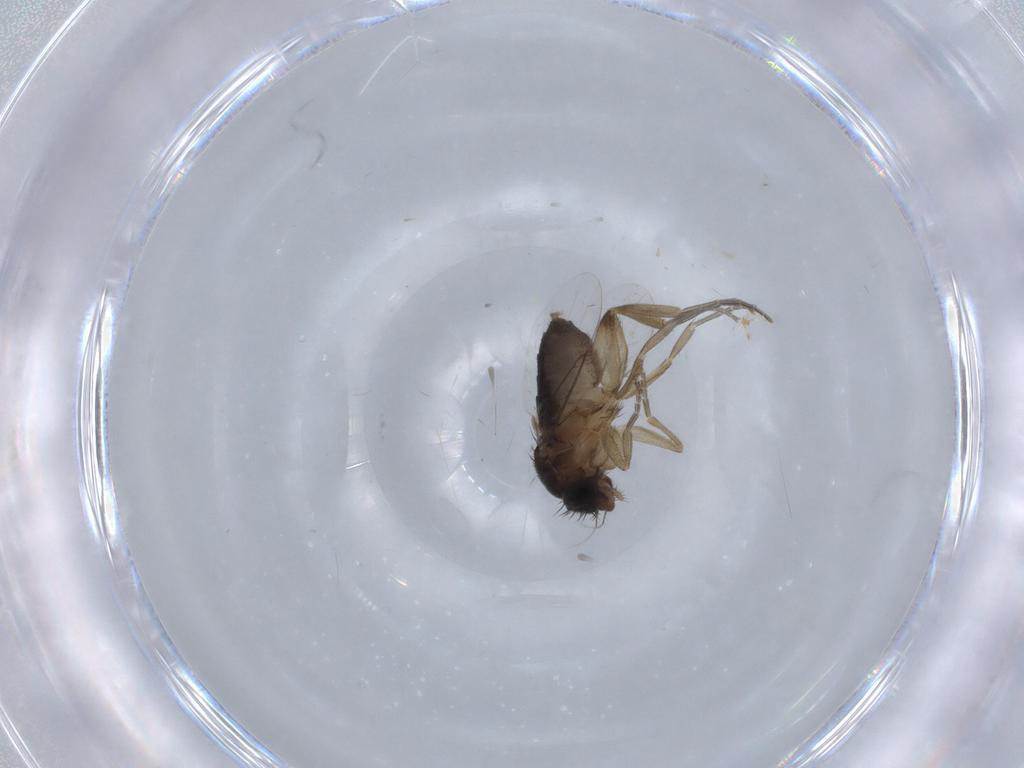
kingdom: Animalia
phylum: Arthropoda
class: Insecta
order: Diptera
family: Phoridae
